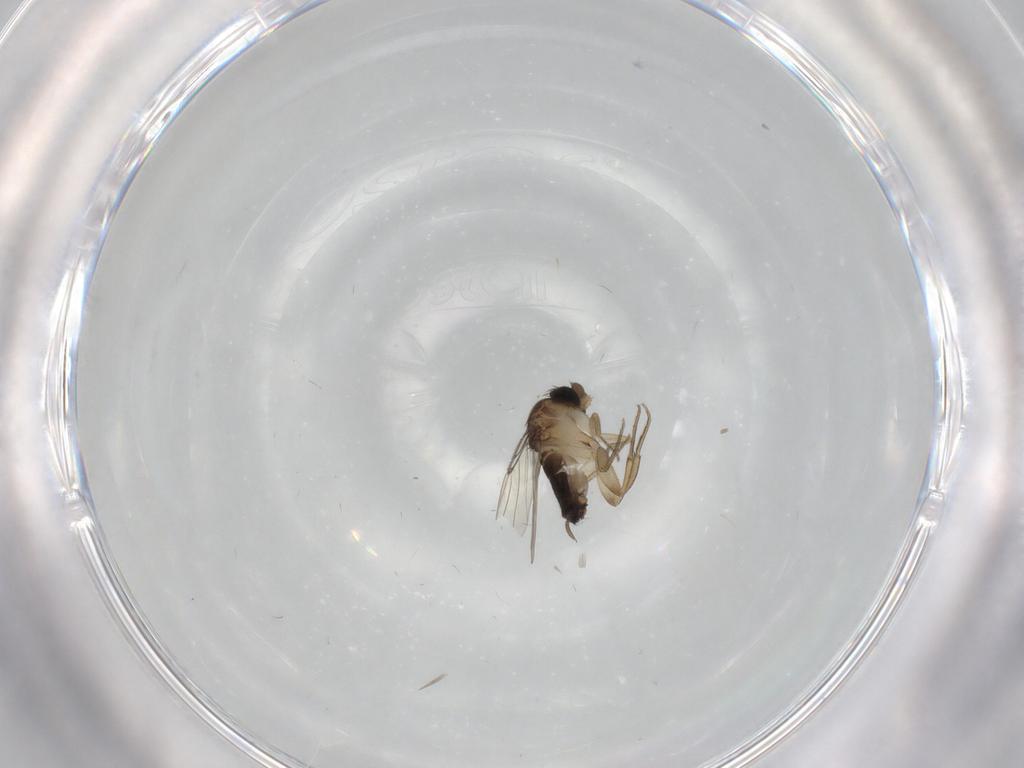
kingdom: Animalia
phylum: Arthropoda
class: Insecta
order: Diptera
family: Phoridae
